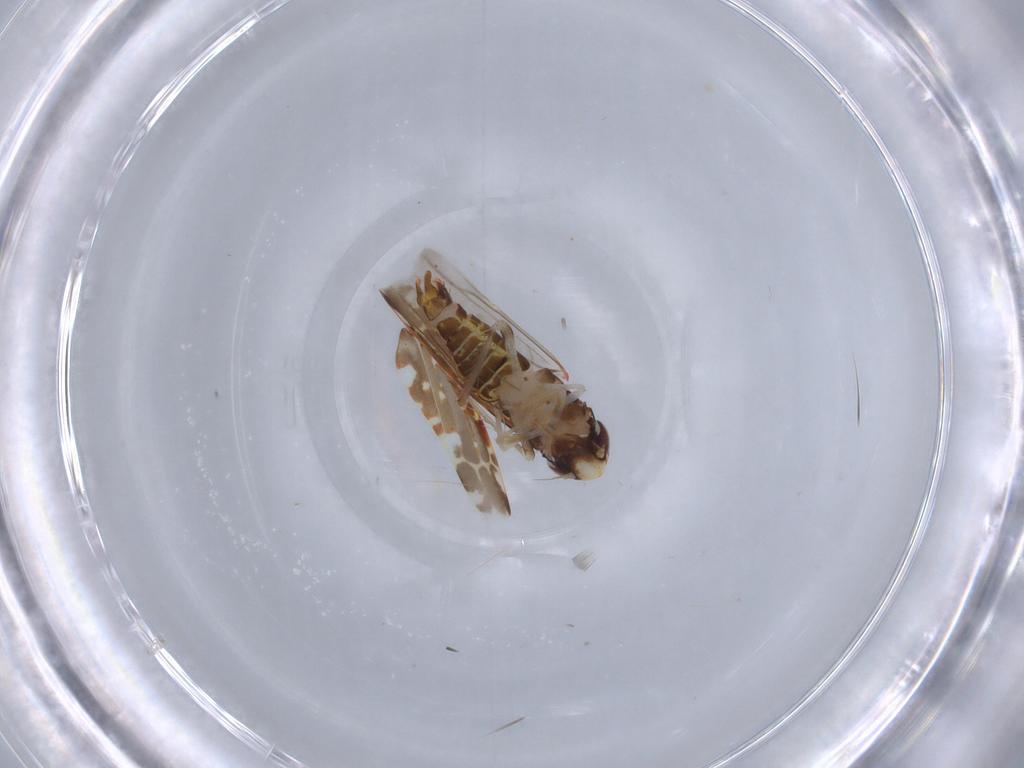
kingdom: Animalia
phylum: Arthropoda
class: Insecta
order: Hemiptera
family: Cicadellidae
